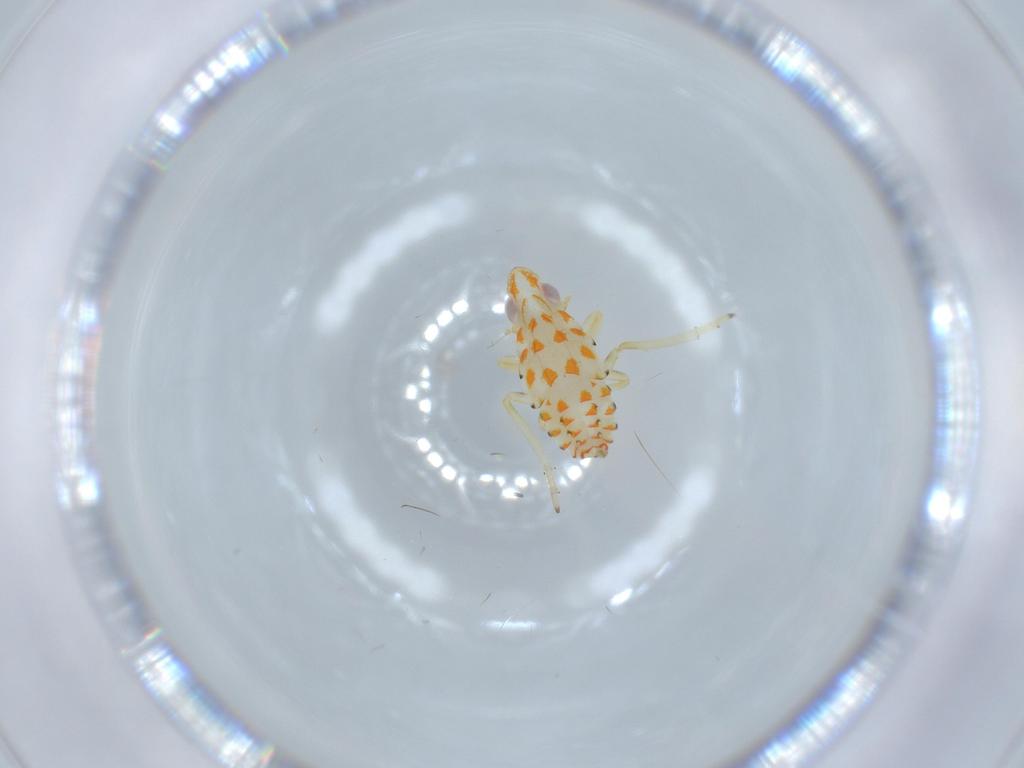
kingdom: Animalia
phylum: Arthropoda
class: Insecta
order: Hemiptera
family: Tropiduchidae
